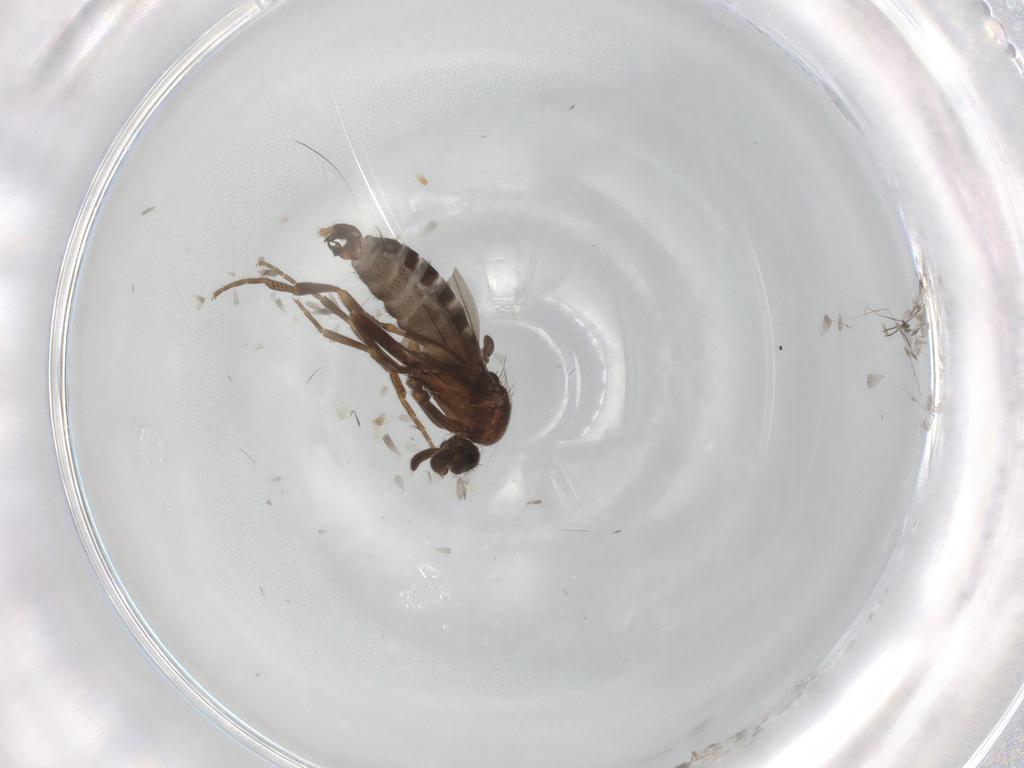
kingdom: Animalia
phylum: Arthropoda
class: Insecta
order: Diptera
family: Muscidae
